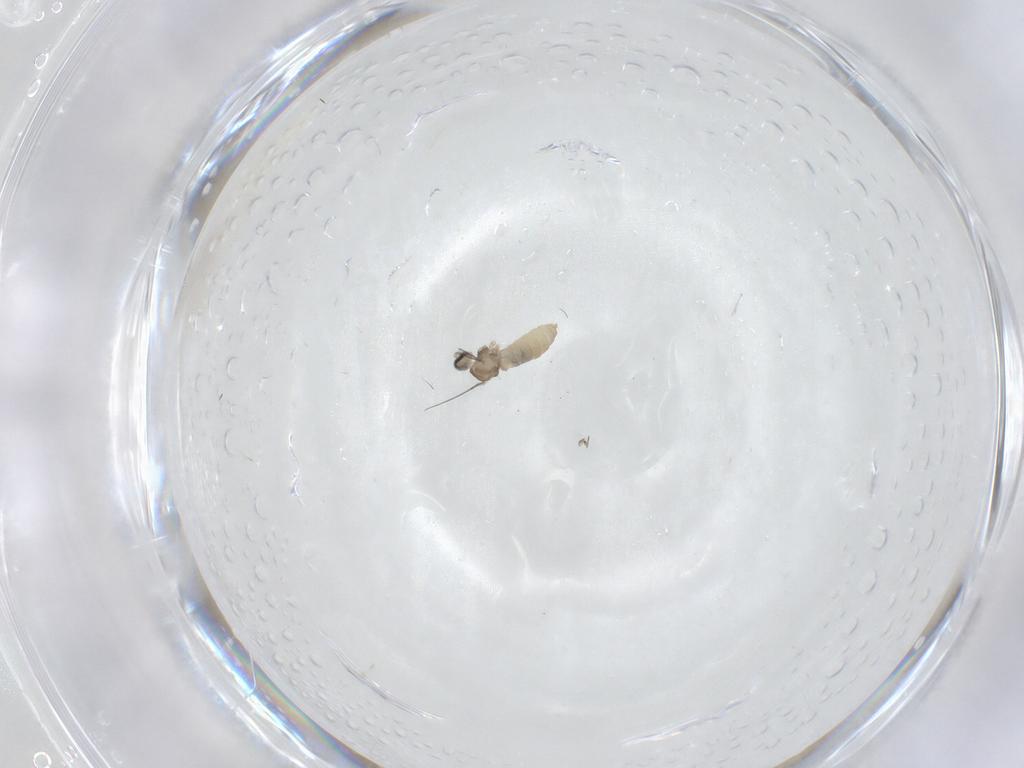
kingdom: Animalia
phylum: Arthropoda
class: Insecta
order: Diptera
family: Cecidomyiidae
